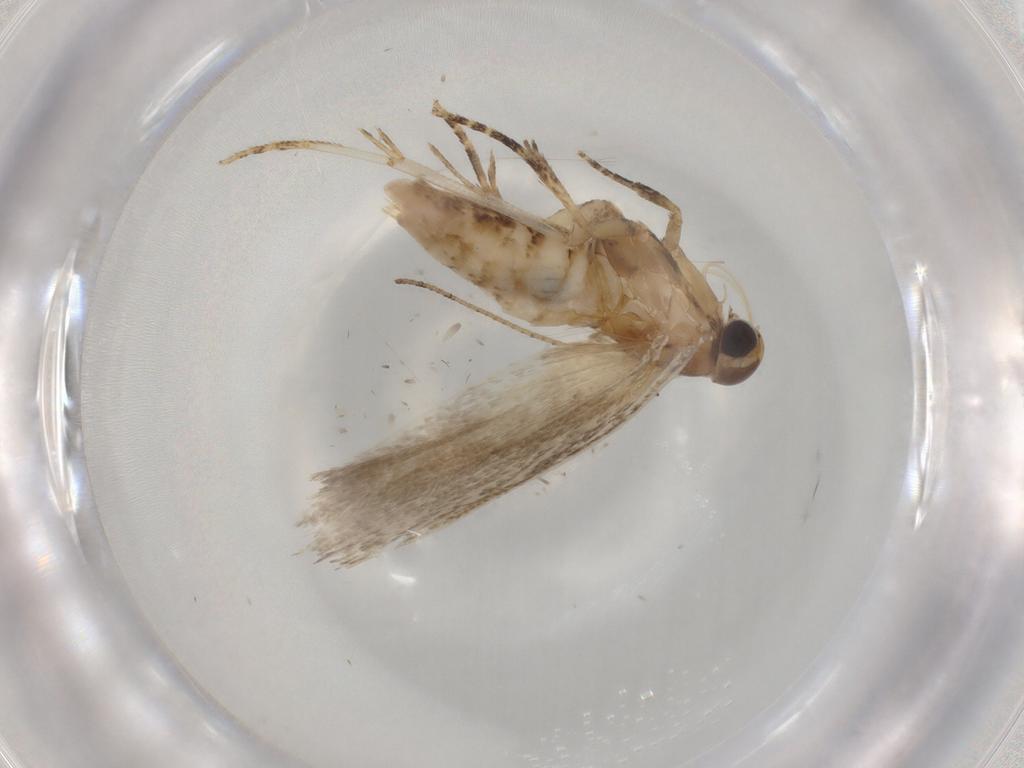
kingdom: Animalia
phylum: Arthropoda
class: Insecta
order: Lepidoptera
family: Gelechiidae
